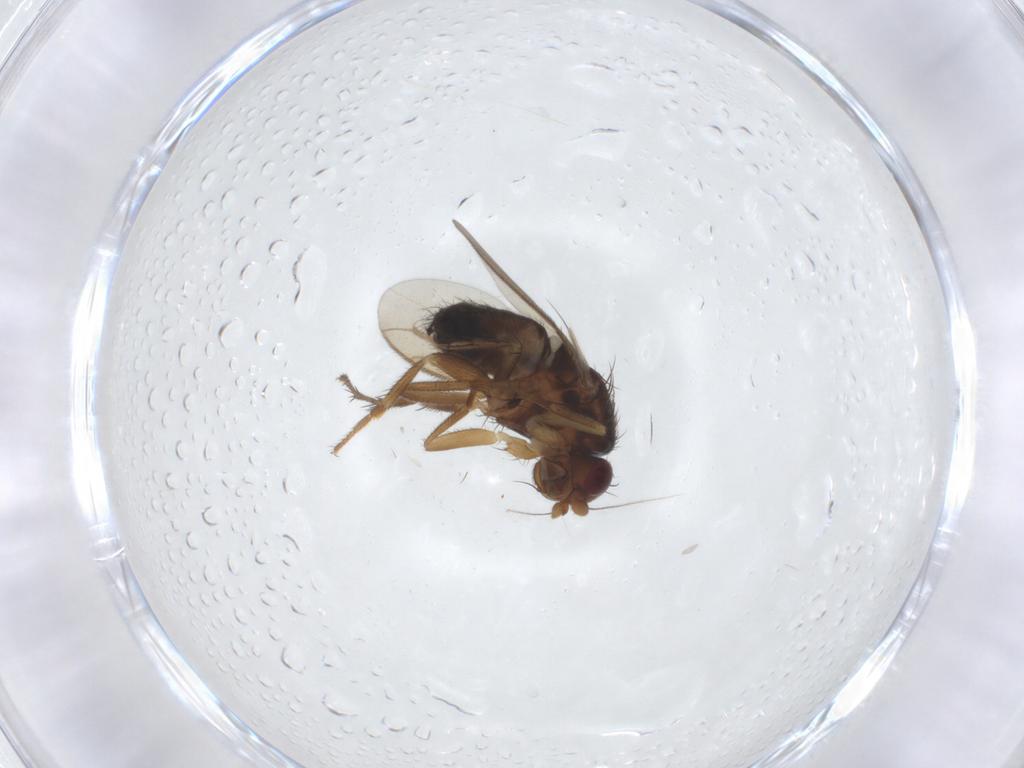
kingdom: Animalia
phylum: Arthropoda
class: Insecta
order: Diptera
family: Sphaeroceridae
